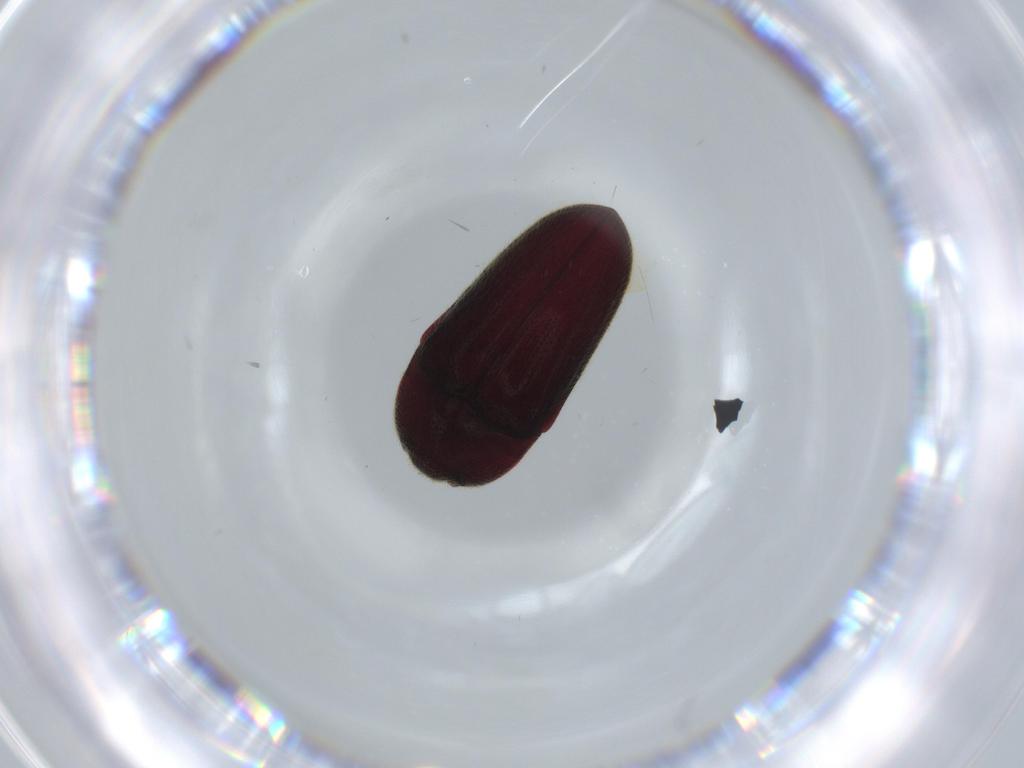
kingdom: Animalia
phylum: Arthropoda
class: Insecta
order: Coleoptera
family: Throscidae
